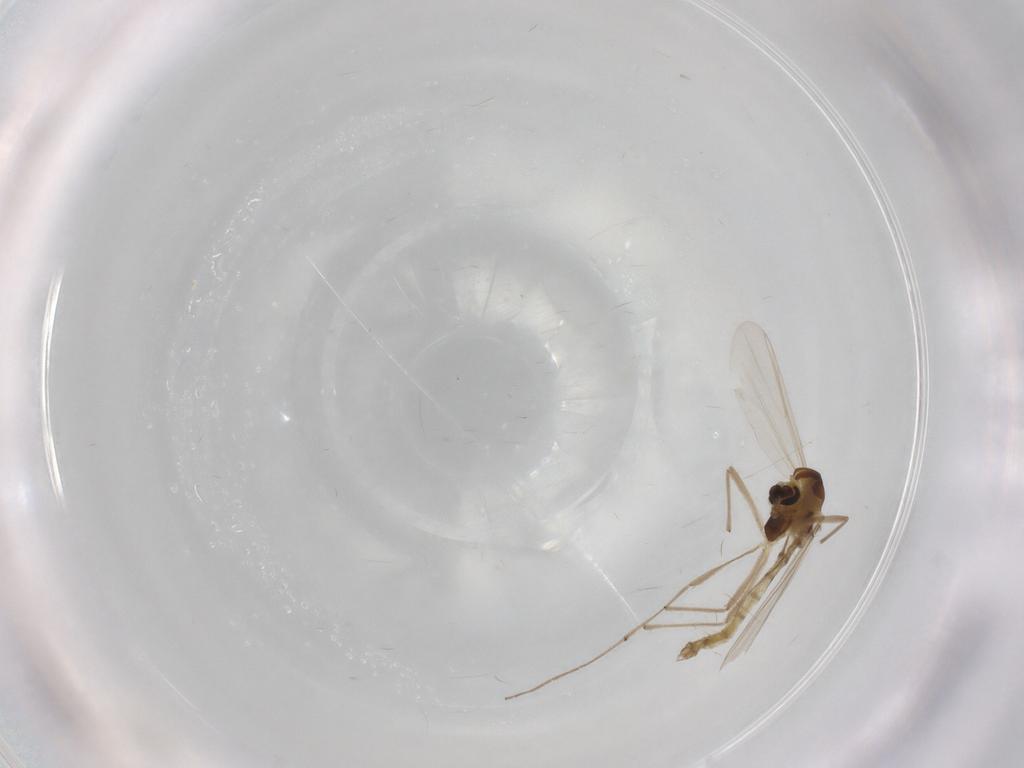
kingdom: Animalia
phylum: Arthropoda
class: Insecta
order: Diptera
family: Chironomidae
